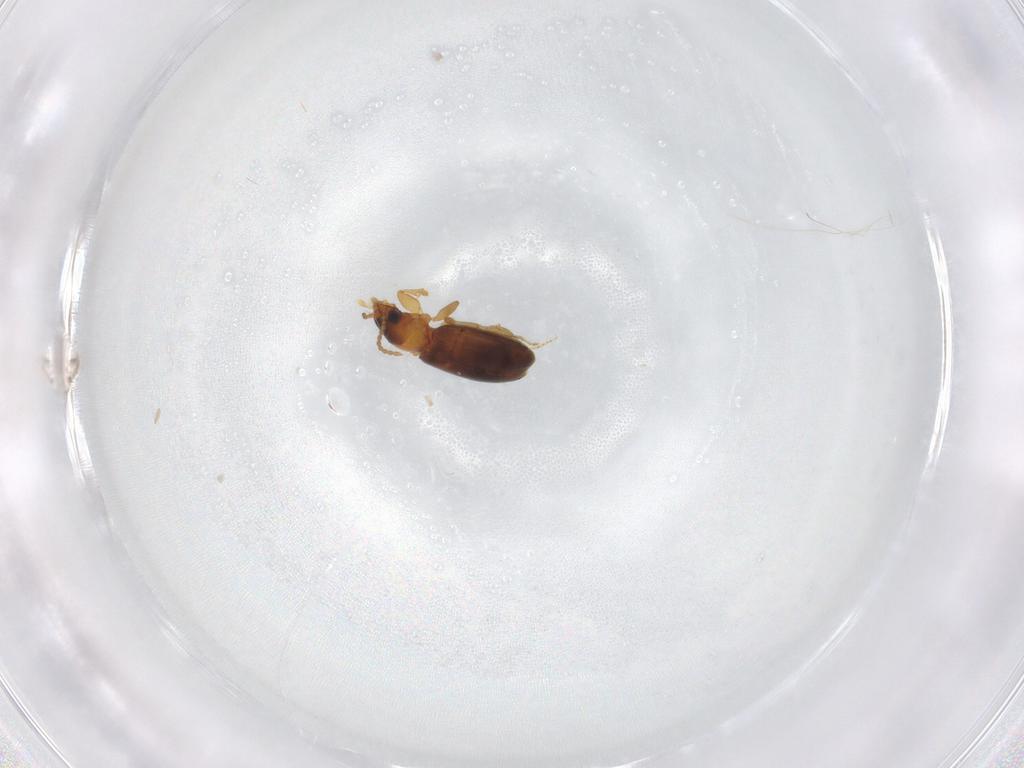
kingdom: Animalia
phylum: Arthropoda
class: Insecta
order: Coleoptera
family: Carabidae
